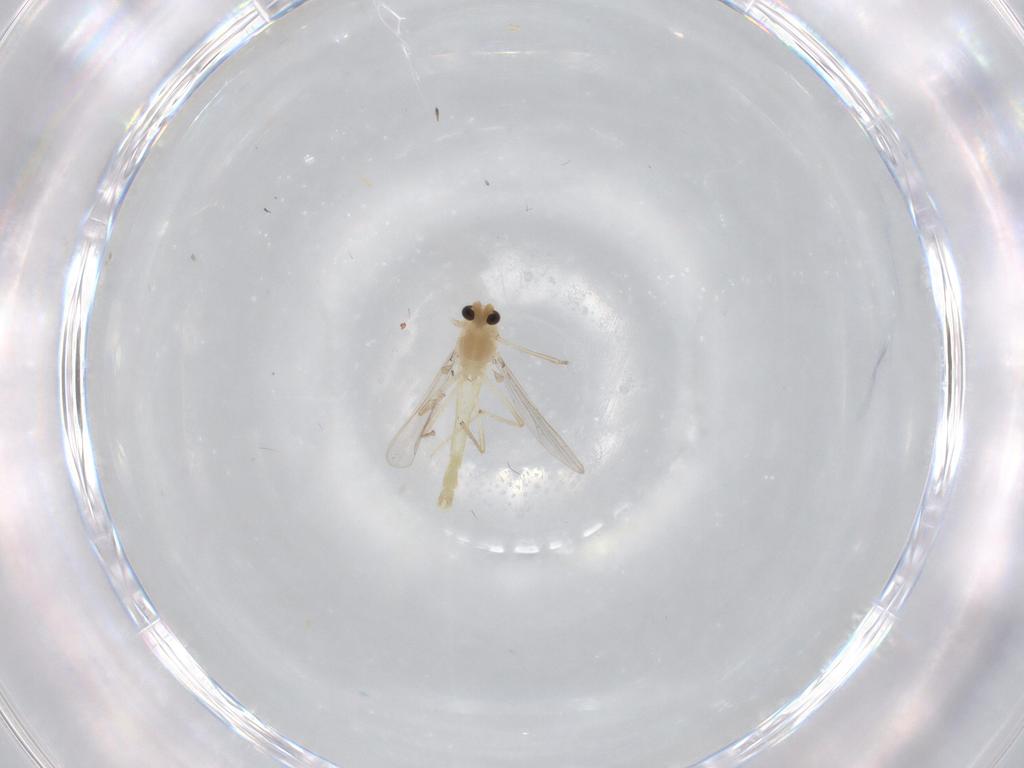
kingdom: Animalia
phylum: Arthropoda
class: Insecta
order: Diptera
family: Chironomidae
